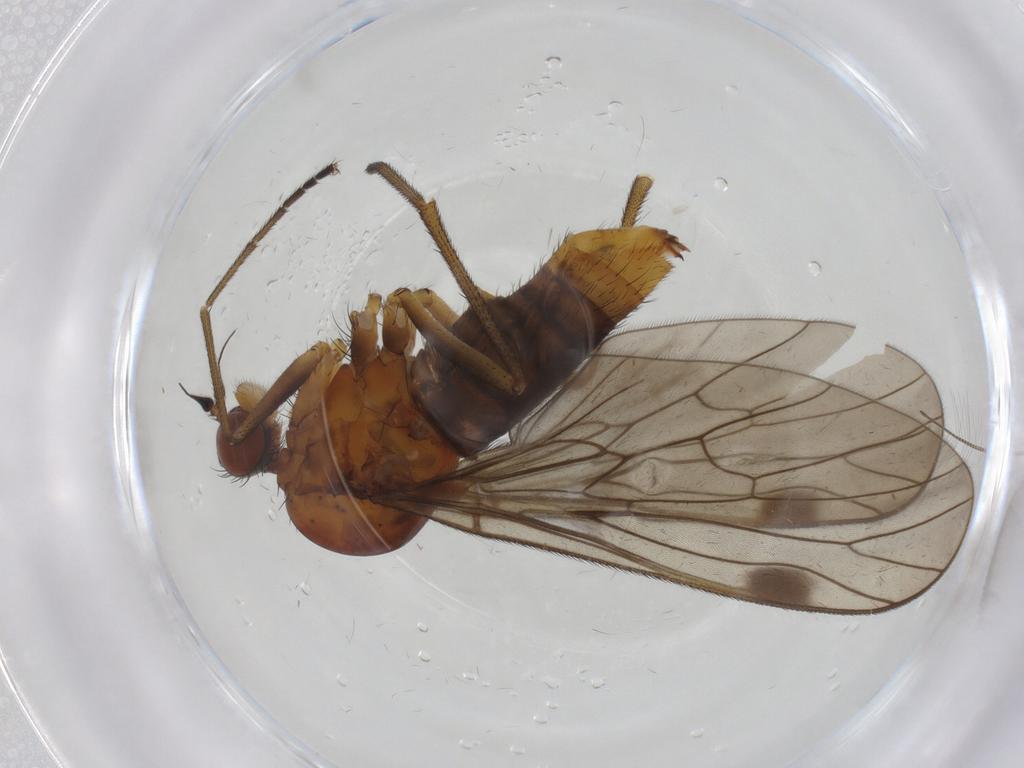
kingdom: Animalia
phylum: Arthropoda
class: Insecta
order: Diptera
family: Empididae
